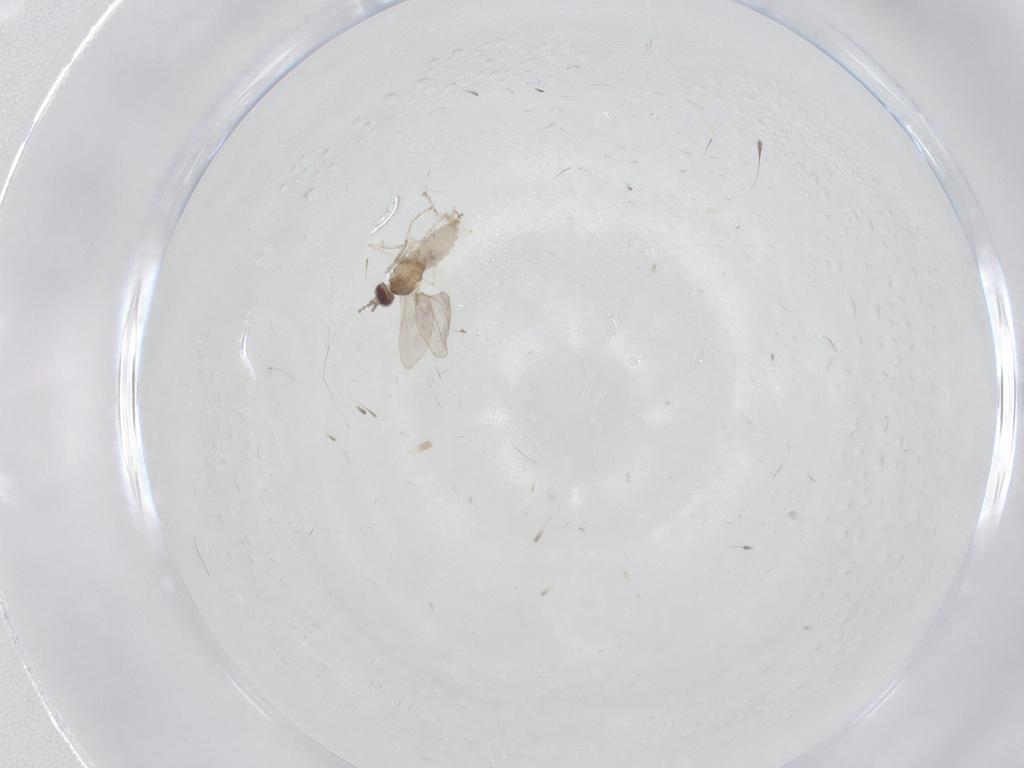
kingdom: Animalia
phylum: Arthropoda
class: Insecta
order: Diptera
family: Cecidomyiidae
